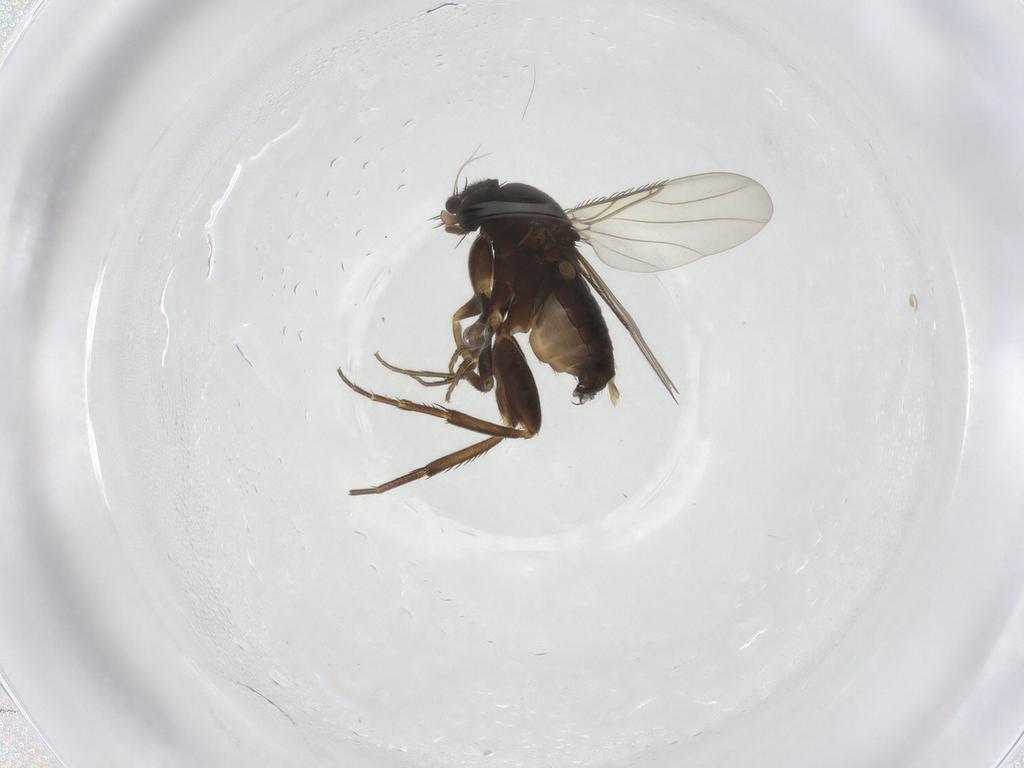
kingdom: Animalia
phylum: Arthropoda
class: Insecta
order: Diptera
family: Phoridae
